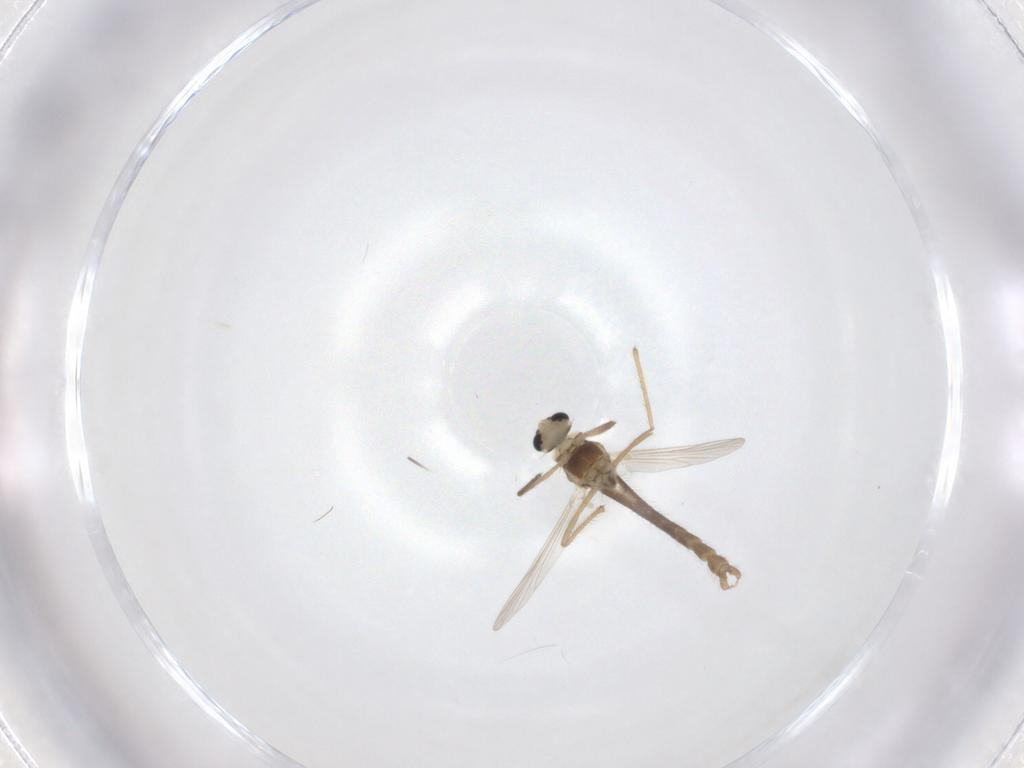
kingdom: Animalia
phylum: Arthropoda
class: Insecta
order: Diptera
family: Chironomidae
